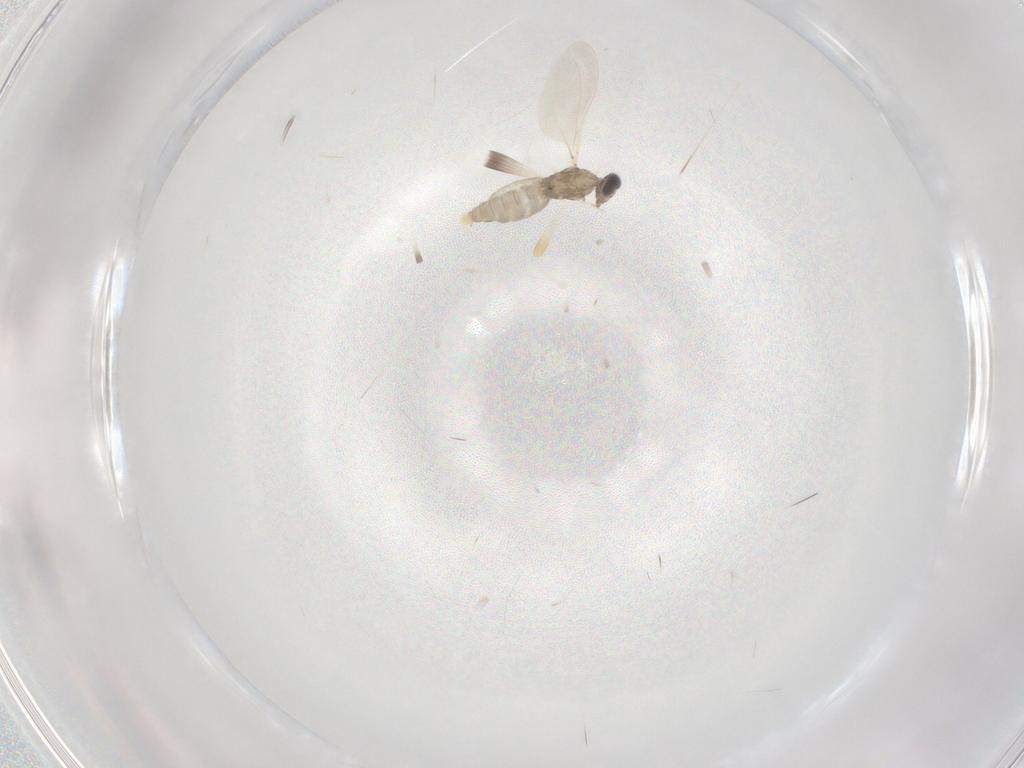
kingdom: Animalia
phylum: Arthropoda
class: Insecta
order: Diptera
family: Cecidomyiidae
